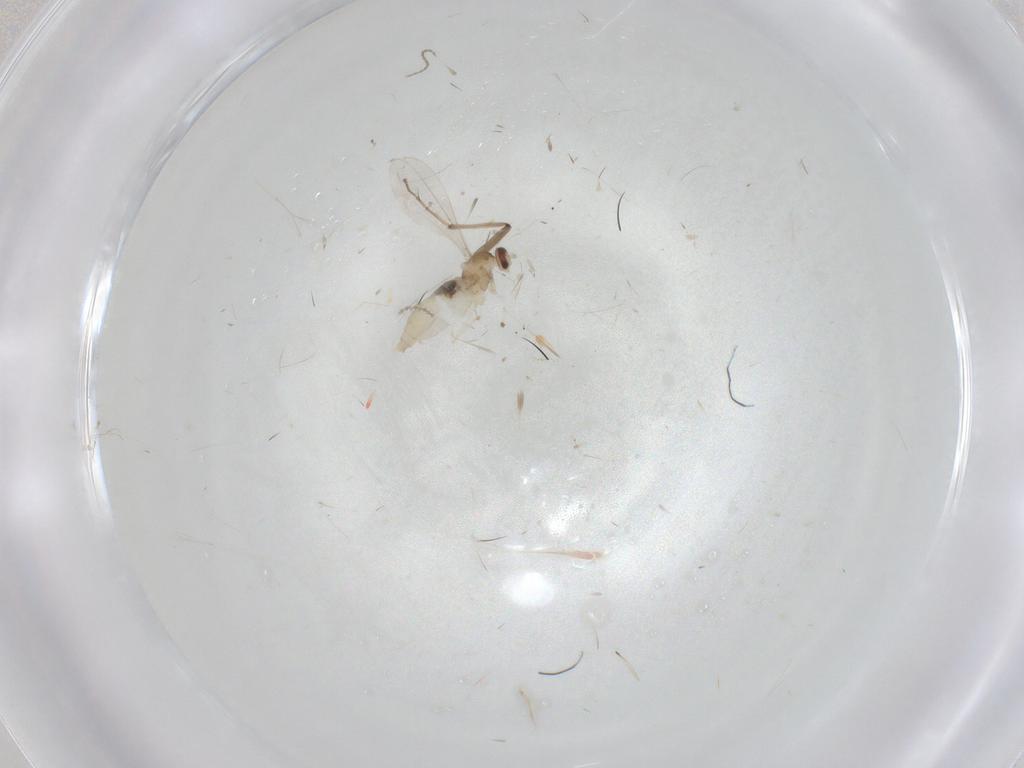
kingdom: Animalia
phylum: Arthropoda
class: Insecta
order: Diptera
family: Cecidomyiidae
